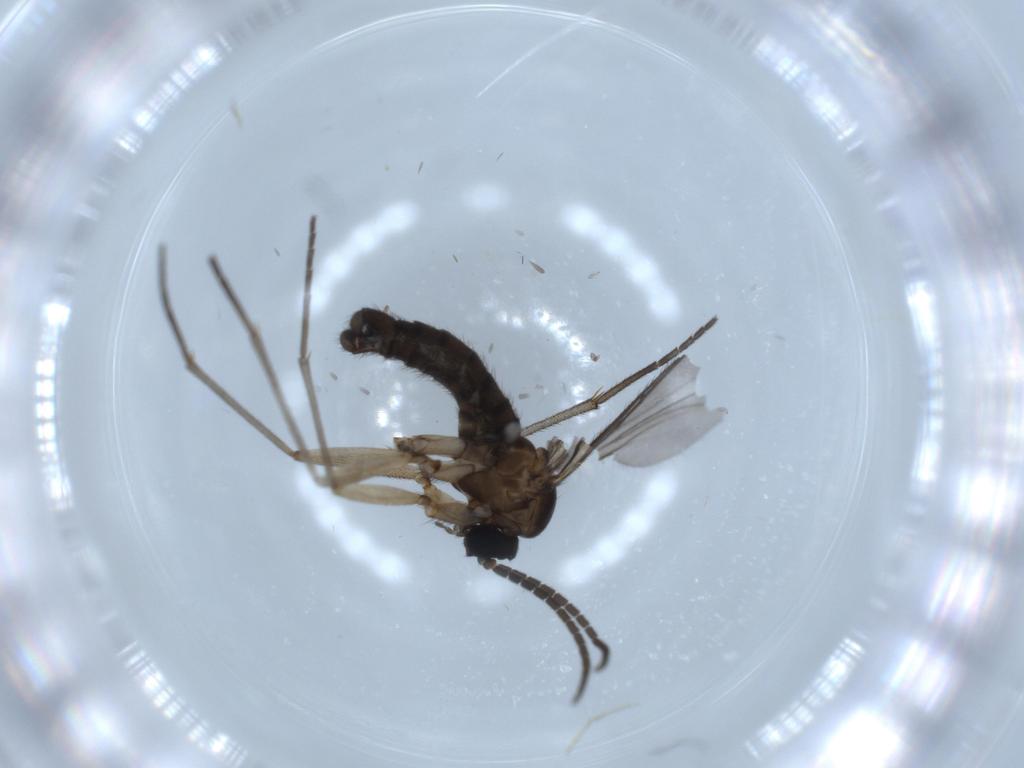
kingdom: Animalia
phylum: Arthropoda
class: Insecta
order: Diptera
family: Sciaridae
